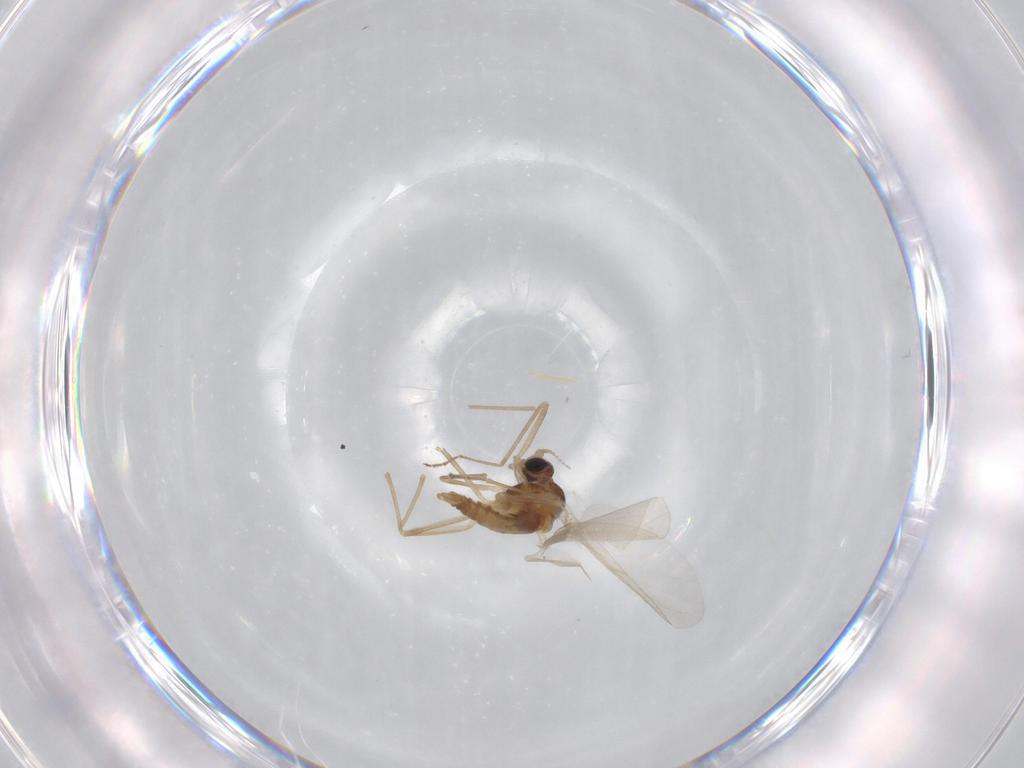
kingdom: Animalia
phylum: Arthropoda
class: Insecta
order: Diptera
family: Cecidomyiidae
